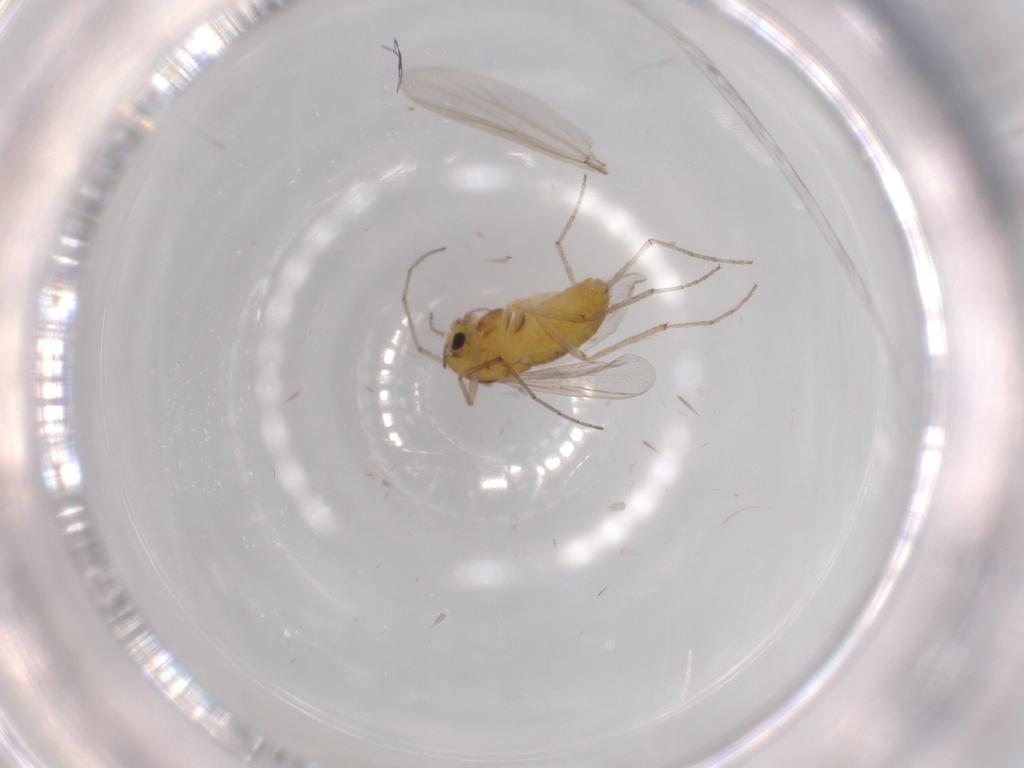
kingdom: Animalia
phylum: Arthropoda
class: Insecta
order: Diptera
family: Chironomidae
